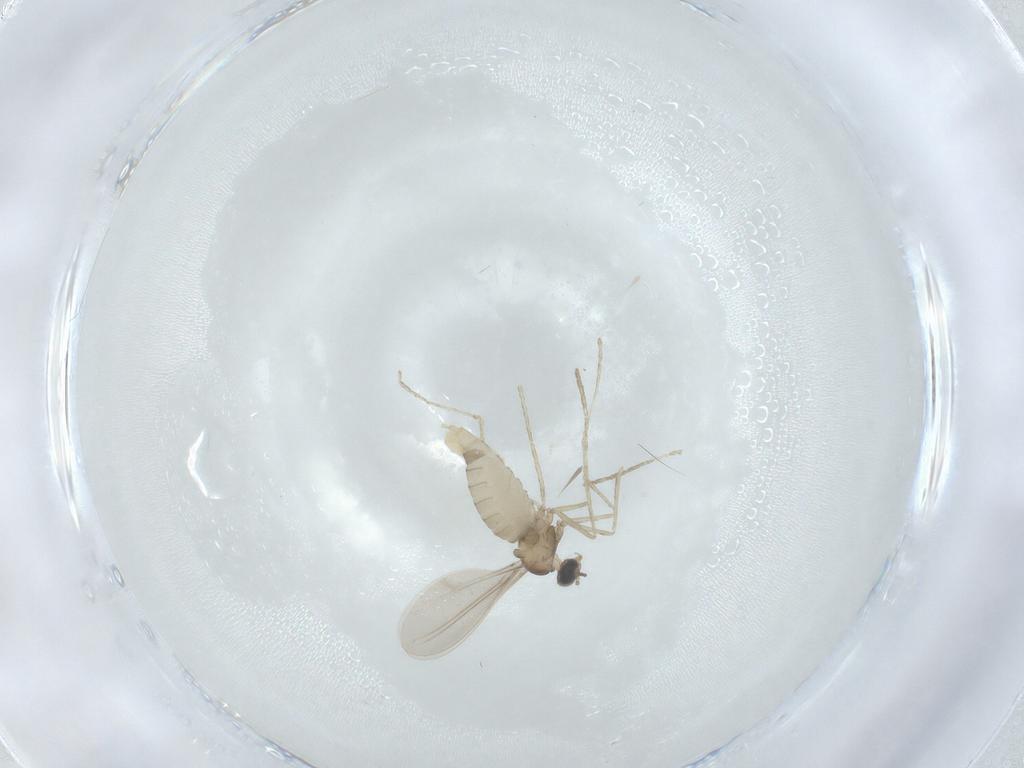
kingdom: Animalia
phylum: Arthropoda
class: Insecta
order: Diptera
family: Cecidomyiidae
